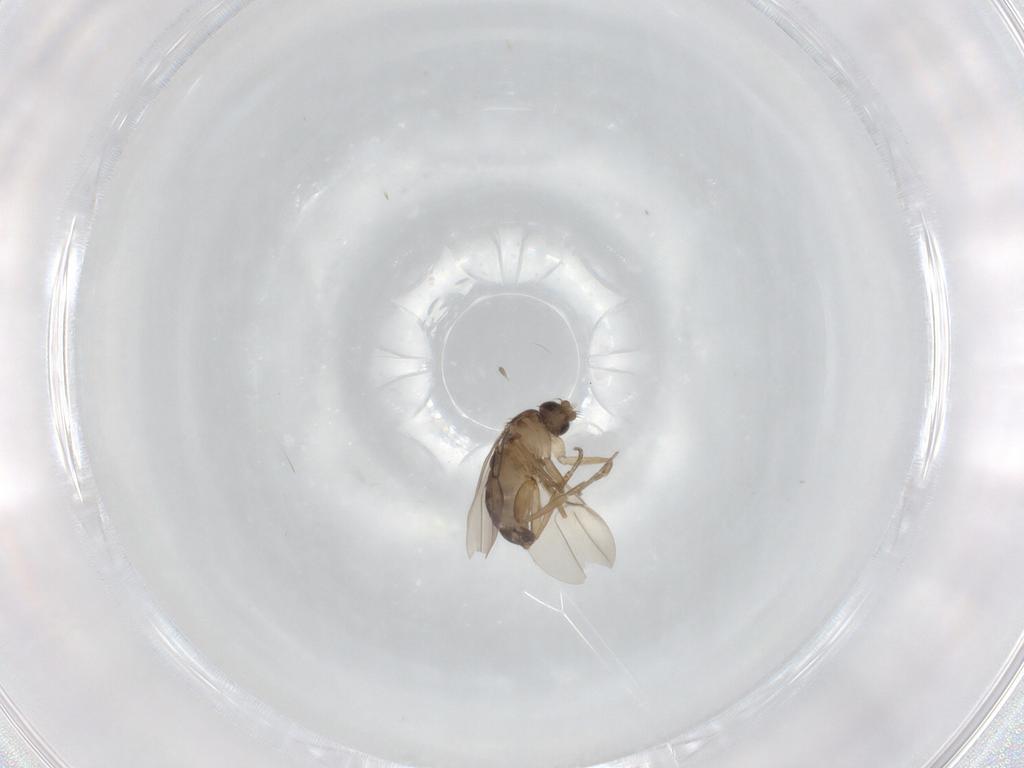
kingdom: Animalia
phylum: Arthropoda
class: Insecta
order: Diptera
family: Phoridae
